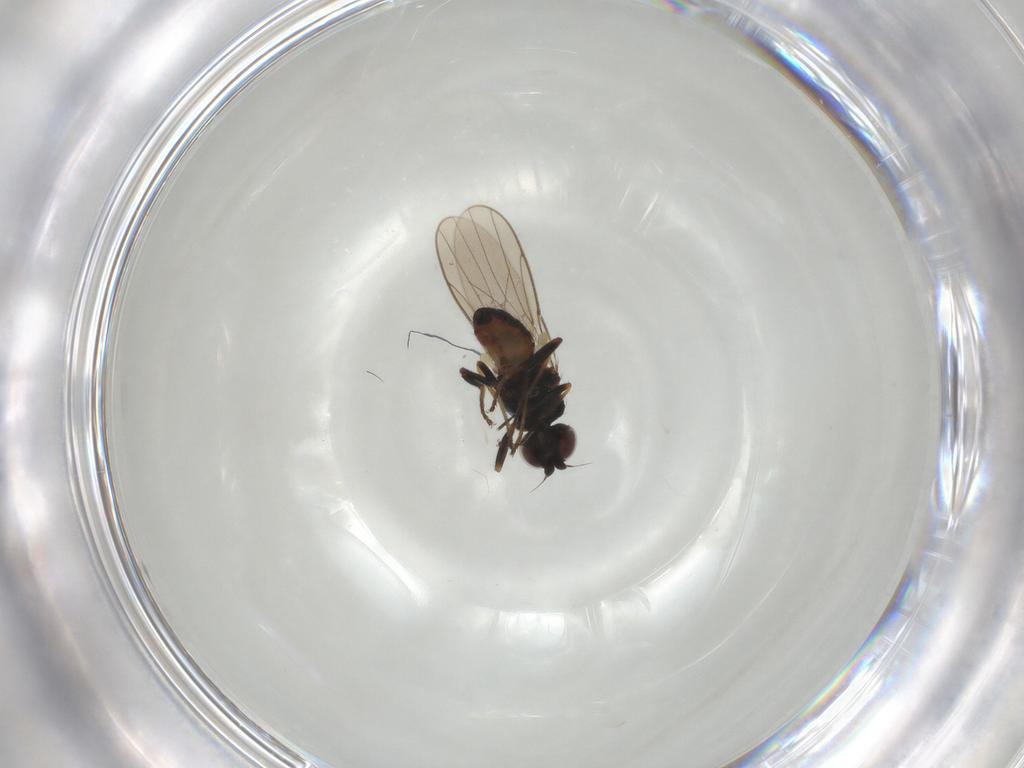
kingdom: Animalia
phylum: Arthropoda
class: Insecta
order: Diptera
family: Chloropidae
